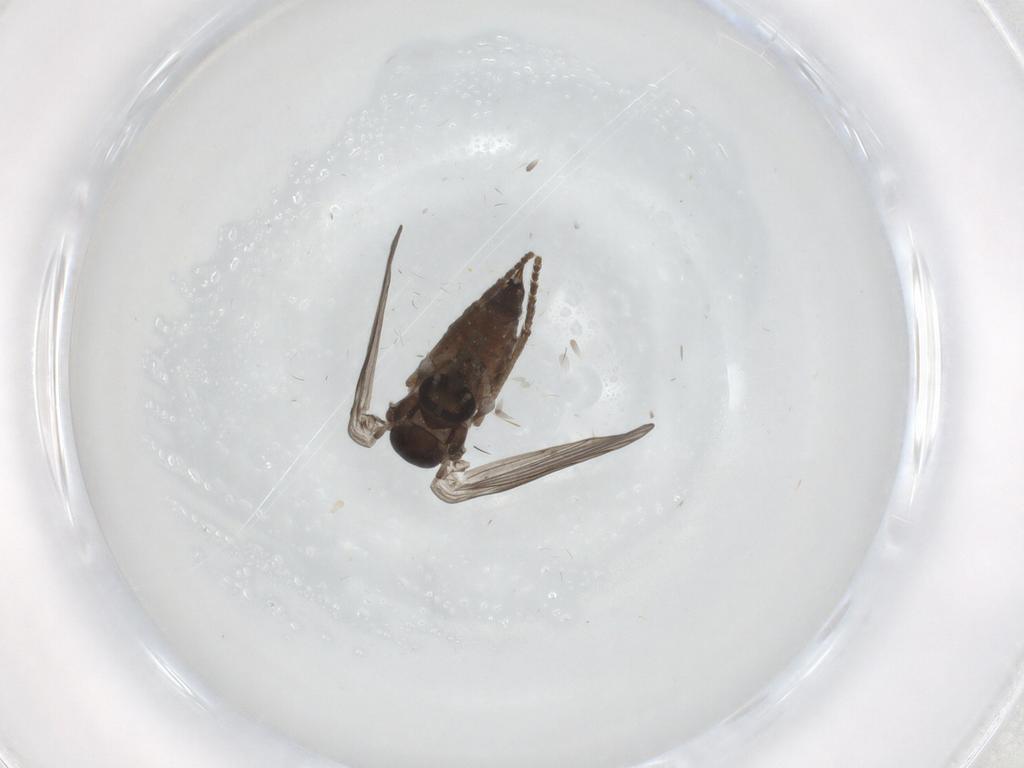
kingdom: Animalia
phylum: Arthropoda
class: Insecta
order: Diptera
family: Psychodidae
